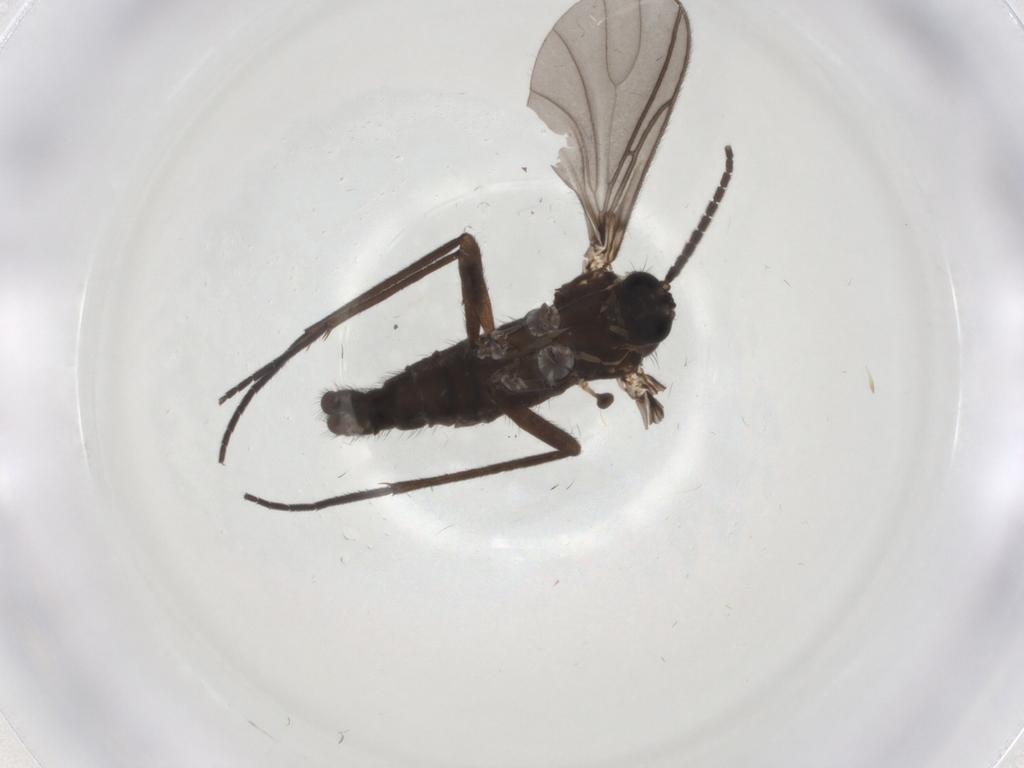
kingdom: Animalia
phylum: Arthropoda
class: Insecta
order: Diptera
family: Sciaridae
